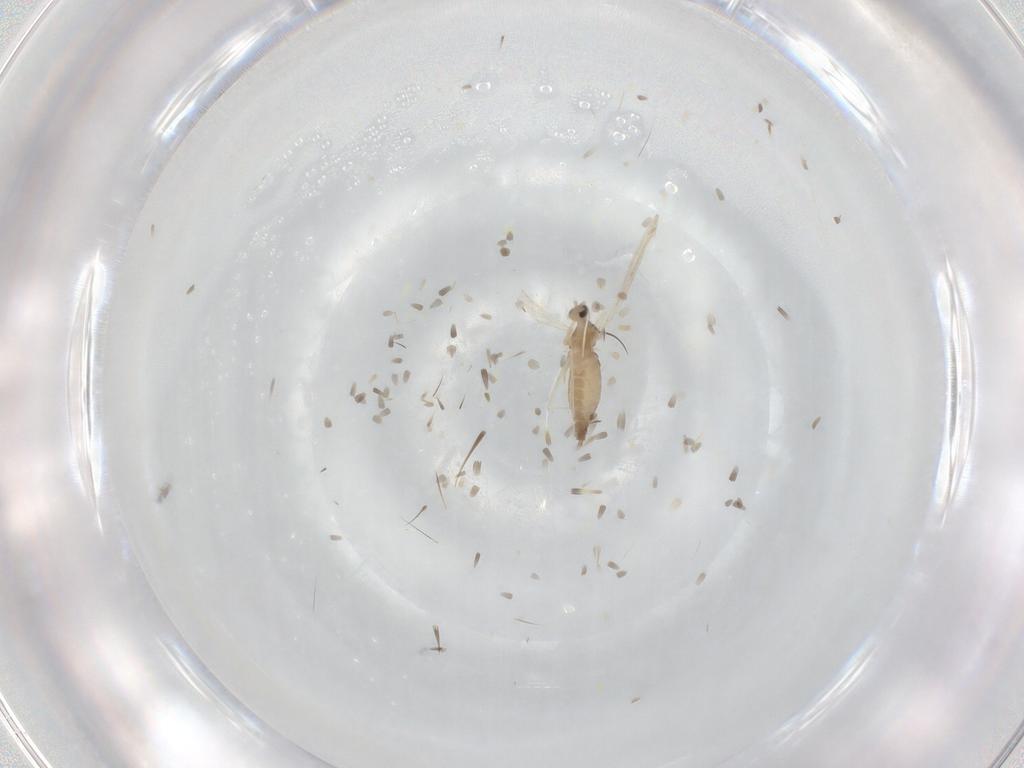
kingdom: Animalia
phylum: Arthropoda
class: Insecta
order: Diptera
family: Cecidomyiidae
